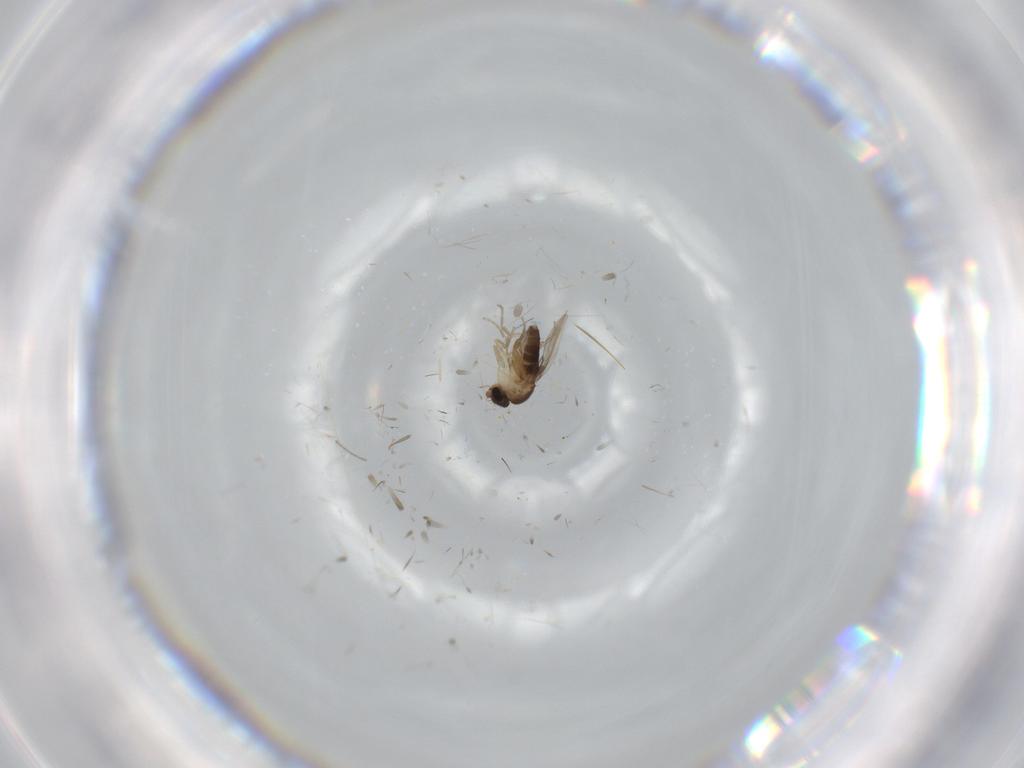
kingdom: Animalia
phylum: Arthropoda
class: Insecta
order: Diptera
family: Phoridae
